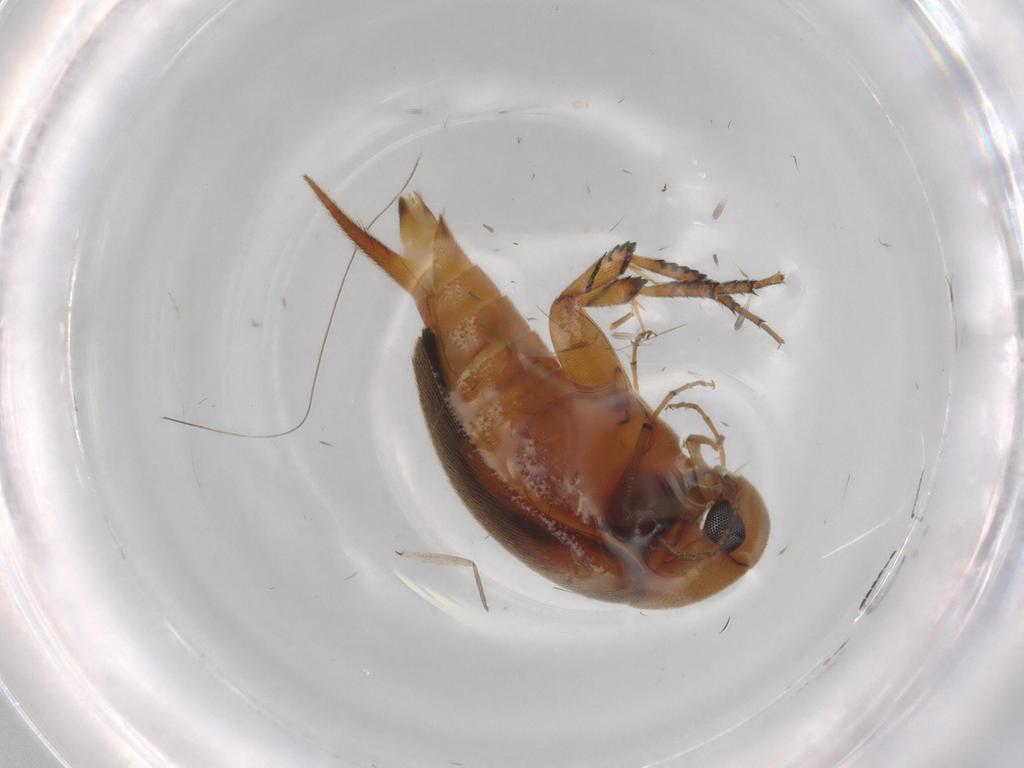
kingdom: Animalia
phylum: Arthropoda
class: Insecta
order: Coleoptera
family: Mordellidae
